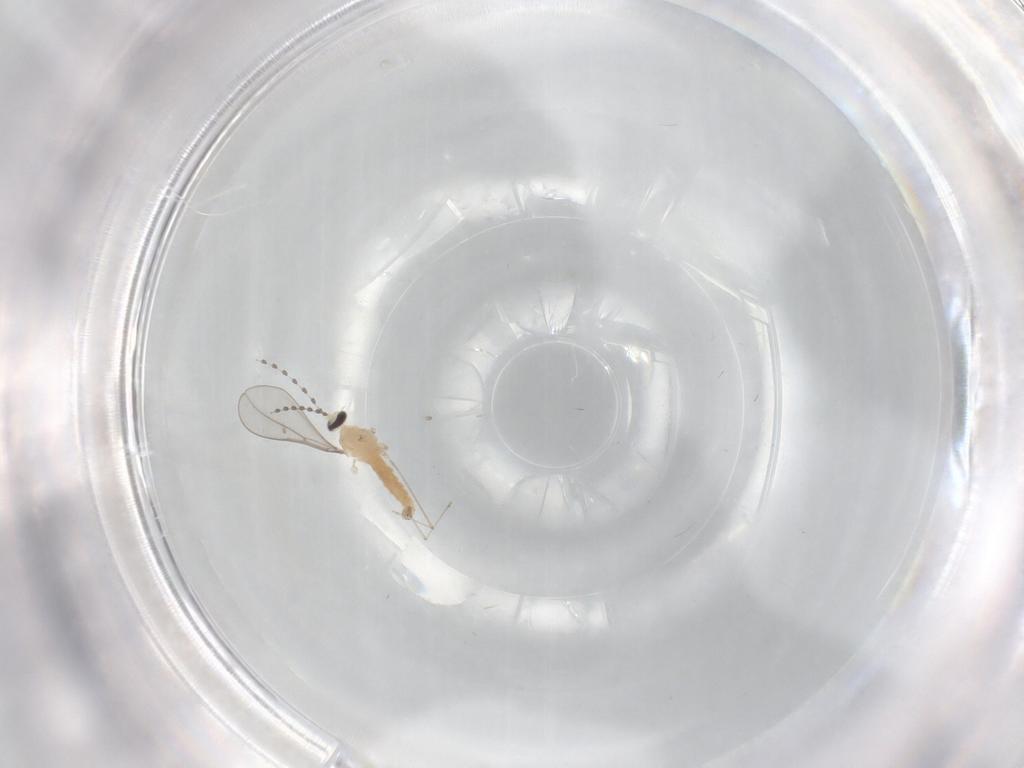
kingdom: Animalia
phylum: Arthropoda
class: Insecta
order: Diptera
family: Cecidomyiidae
